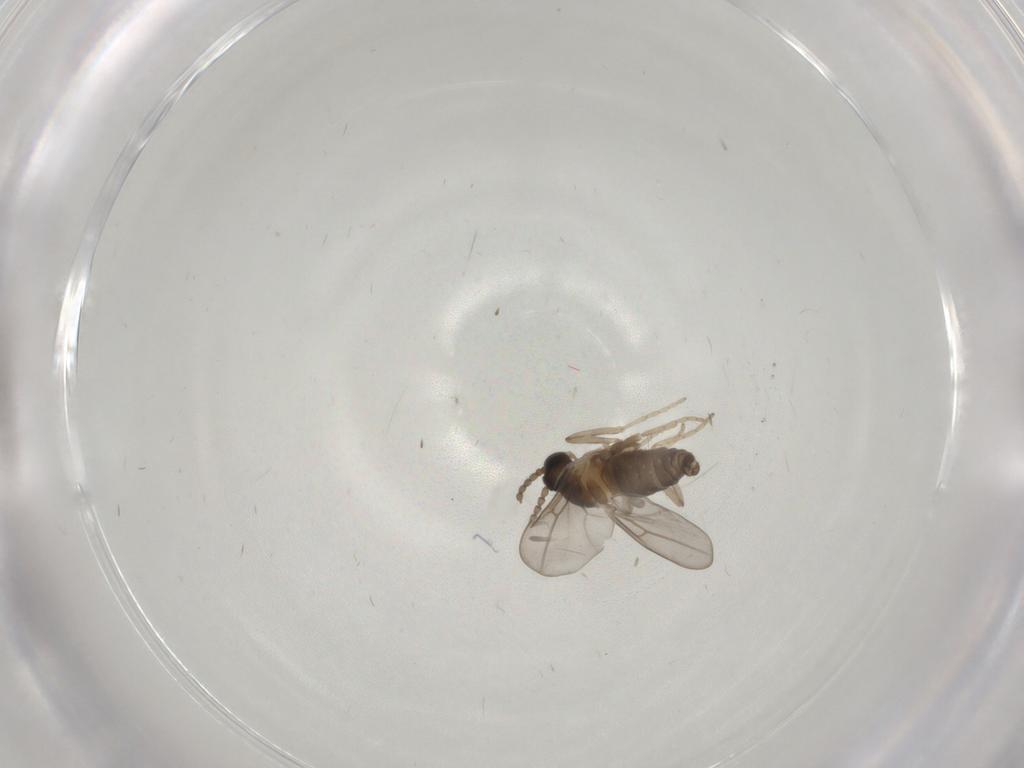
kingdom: Animalia
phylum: Arthropoda
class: Insecta
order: Diptera
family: Cecidomyiidae
